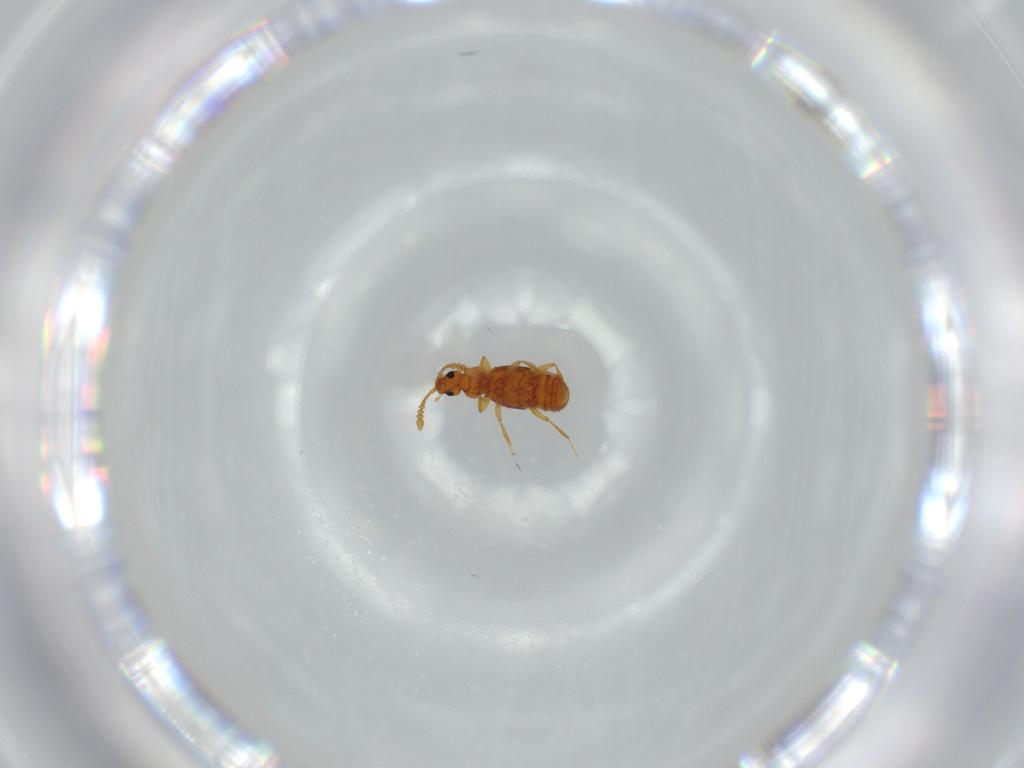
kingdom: Animalia
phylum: Arthropoda
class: Insecta
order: Coleoptera
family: Staphylinidae
